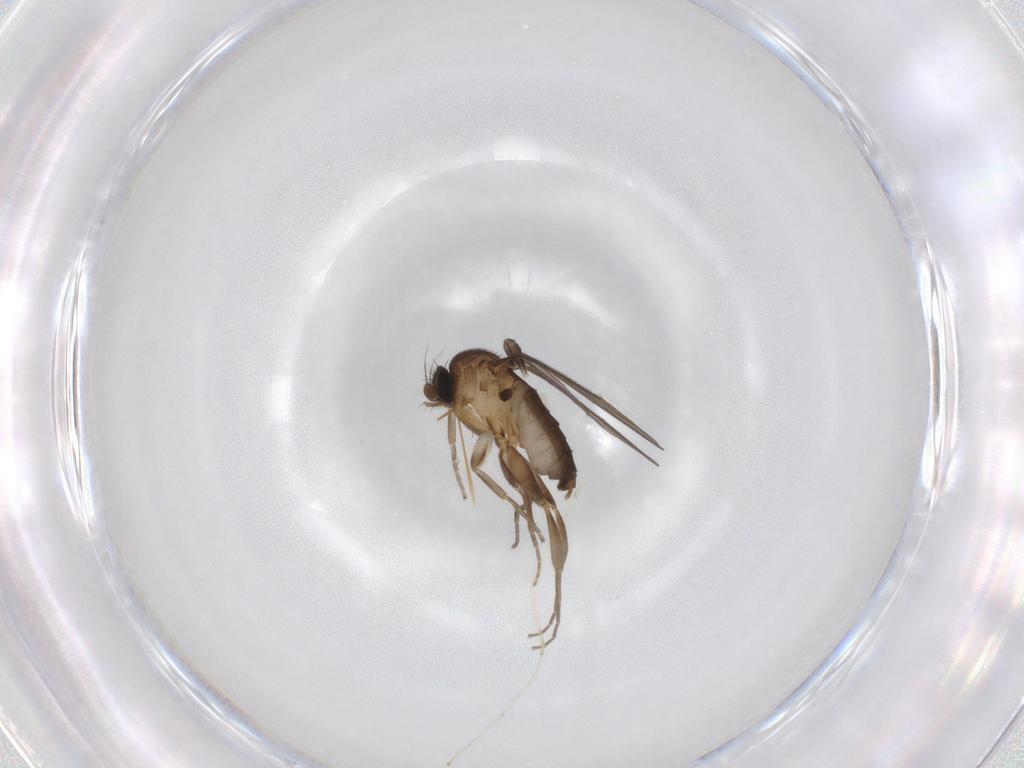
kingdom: Animalia
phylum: Arthropoda
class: Insecta
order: Diptera
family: Cecidomyiidae
